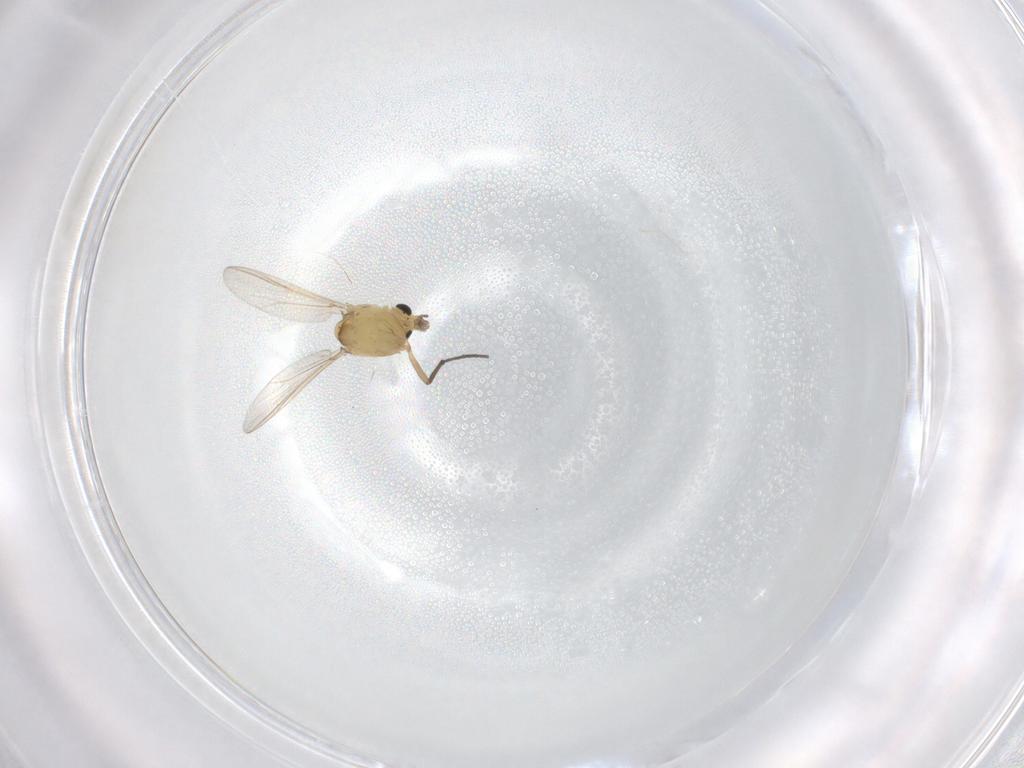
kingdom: Animalia
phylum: Arthropoda
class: Insecta
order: Diptera
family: Chironomidae
